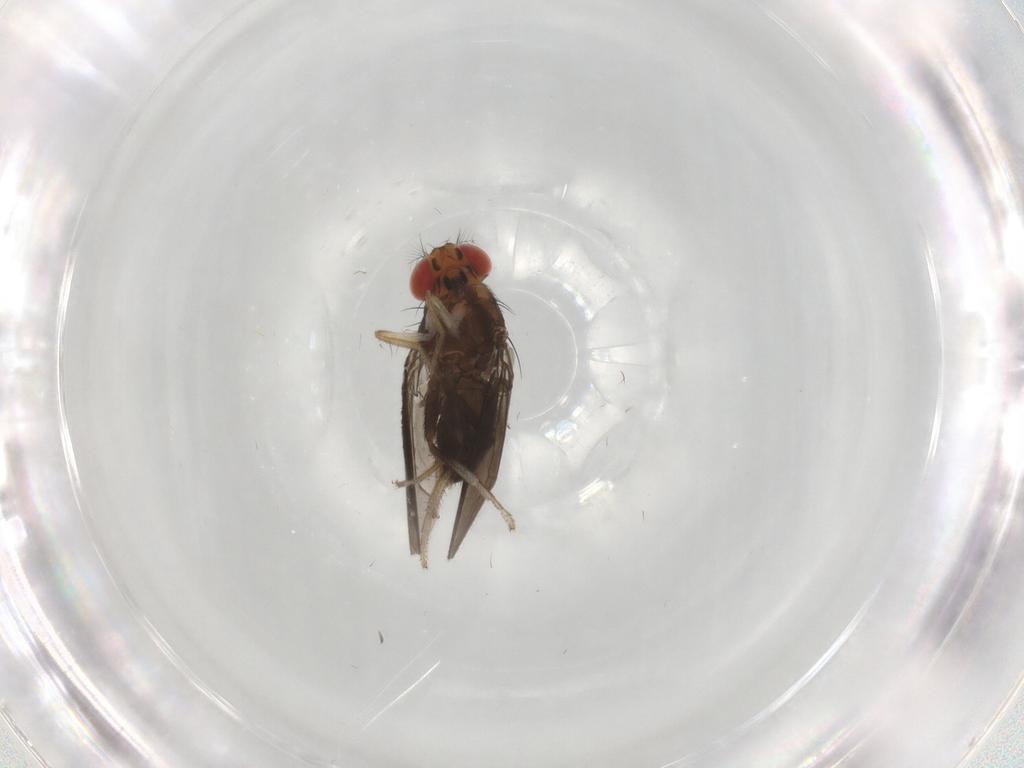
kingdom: Animalia
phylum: Arthropoda
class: Insecta
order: Diptera
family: Drosophilidae
